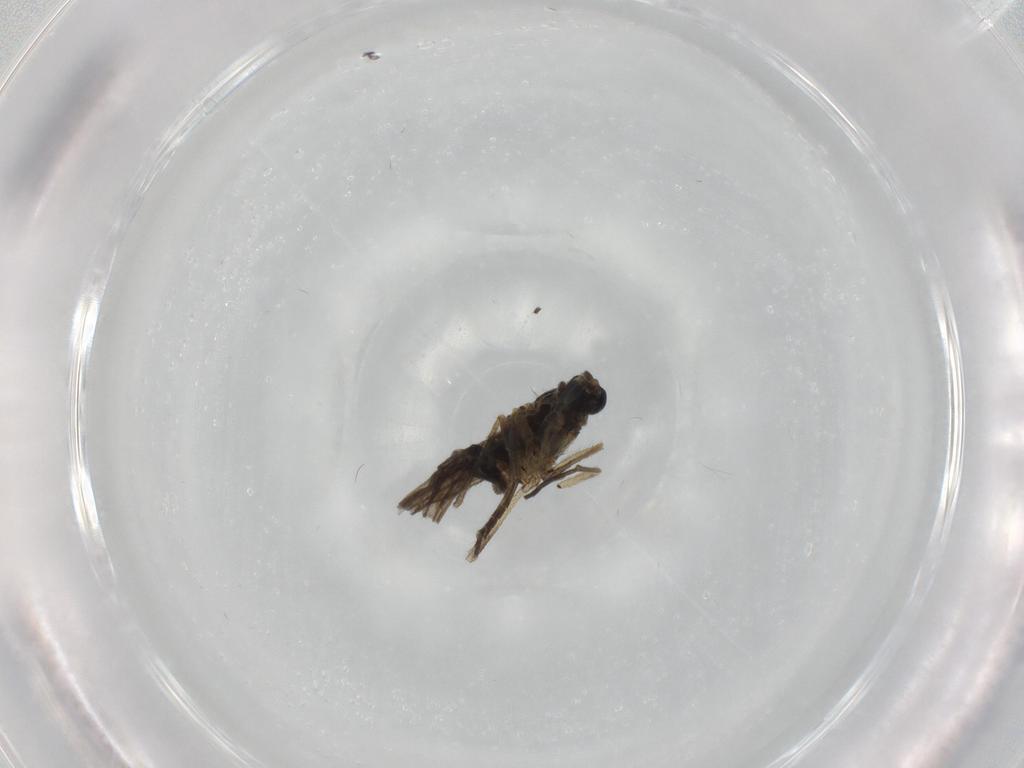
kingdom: Animalia
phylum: Arthropoda
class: Insecta
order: Diptera
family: Sciaridae
